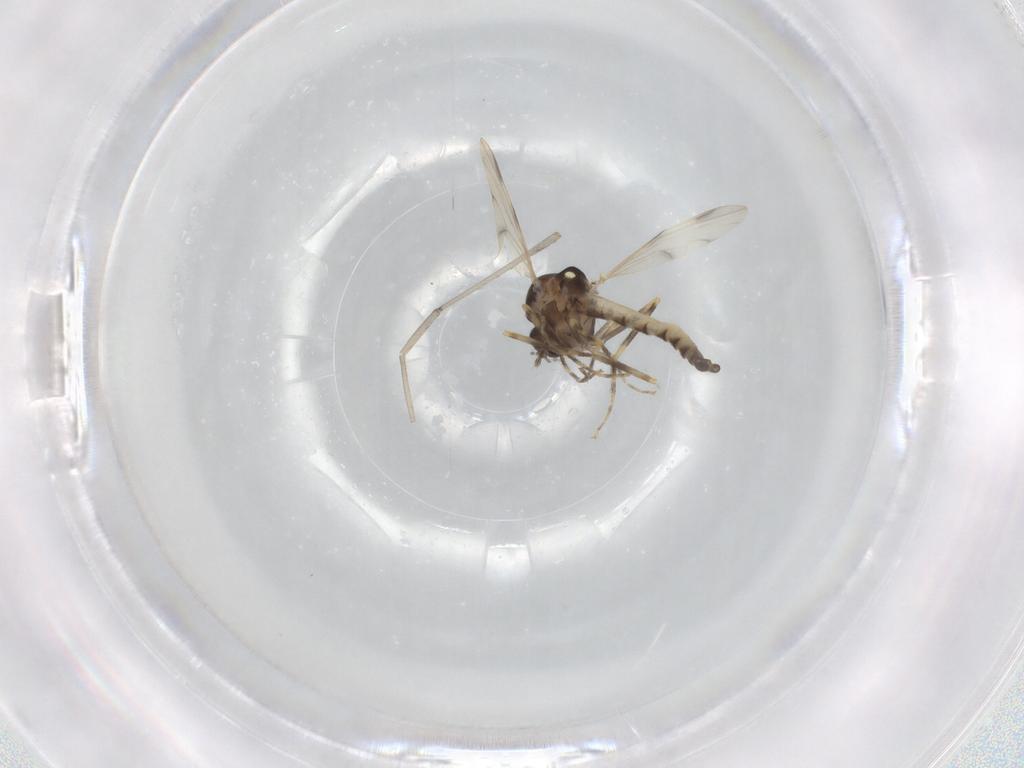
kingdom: Animalia
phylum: Arthropoda
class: Insecta
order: Diptera
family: Ceratopogonidae
